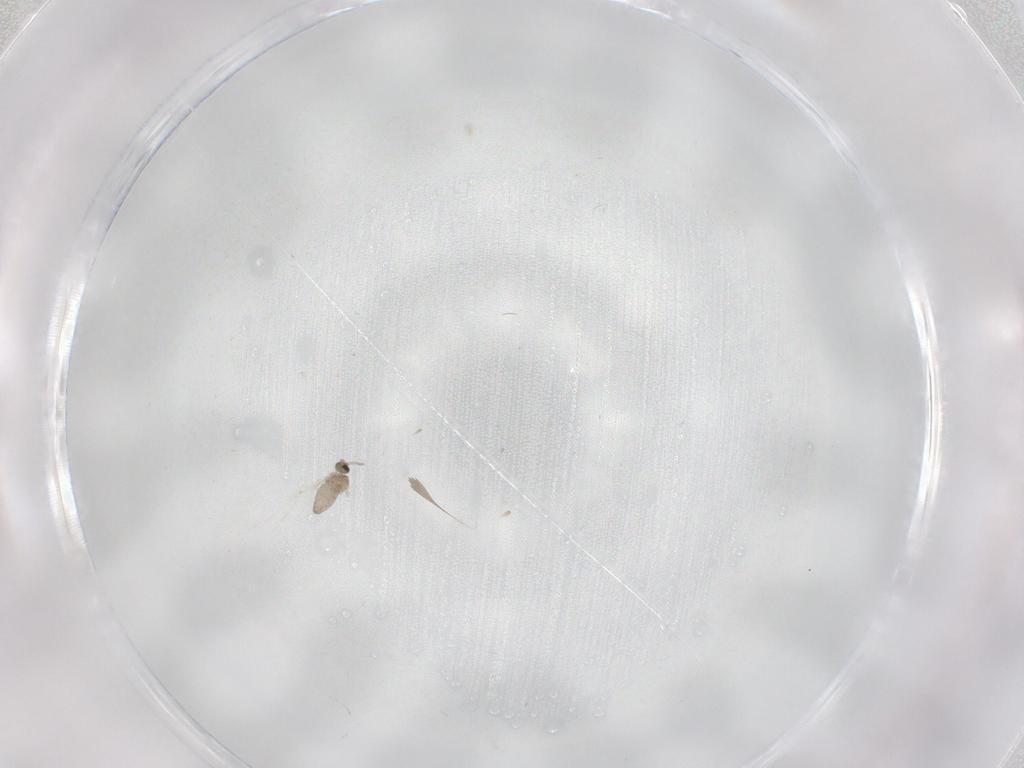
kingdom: Animalia
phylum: Arthropoda
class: Insecta
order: Diptera
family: Cecidomyiidae
